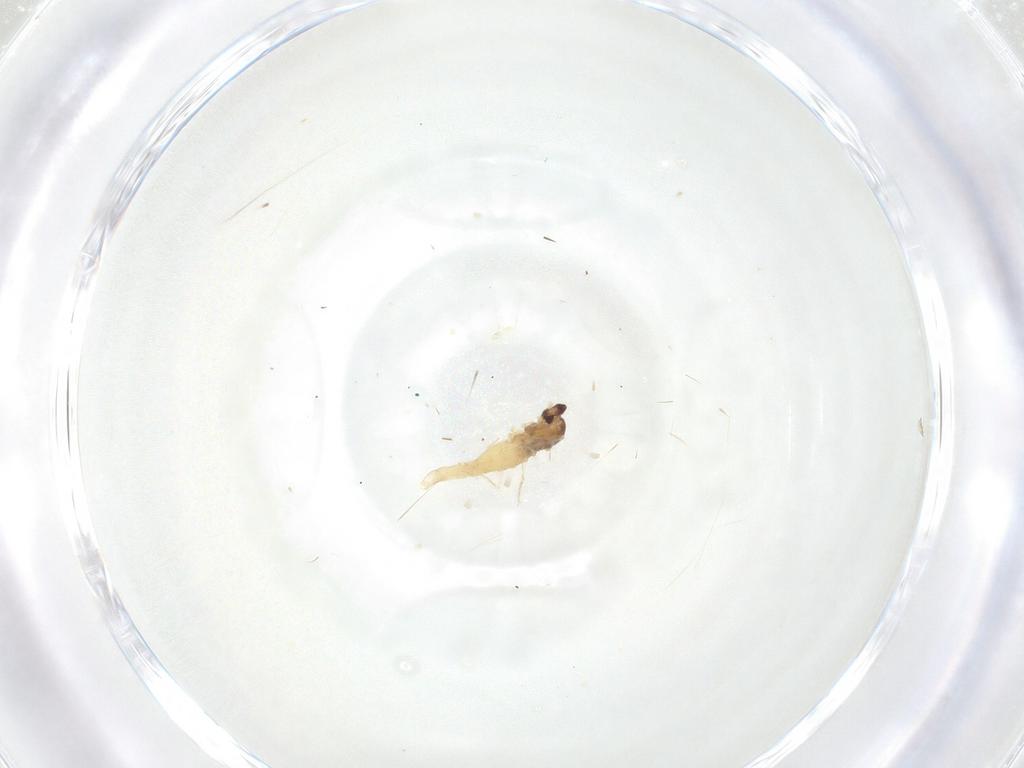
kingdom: Animalia
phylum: Arthropoda
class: Insecta
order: Diptera
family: Cecidomyiidae
